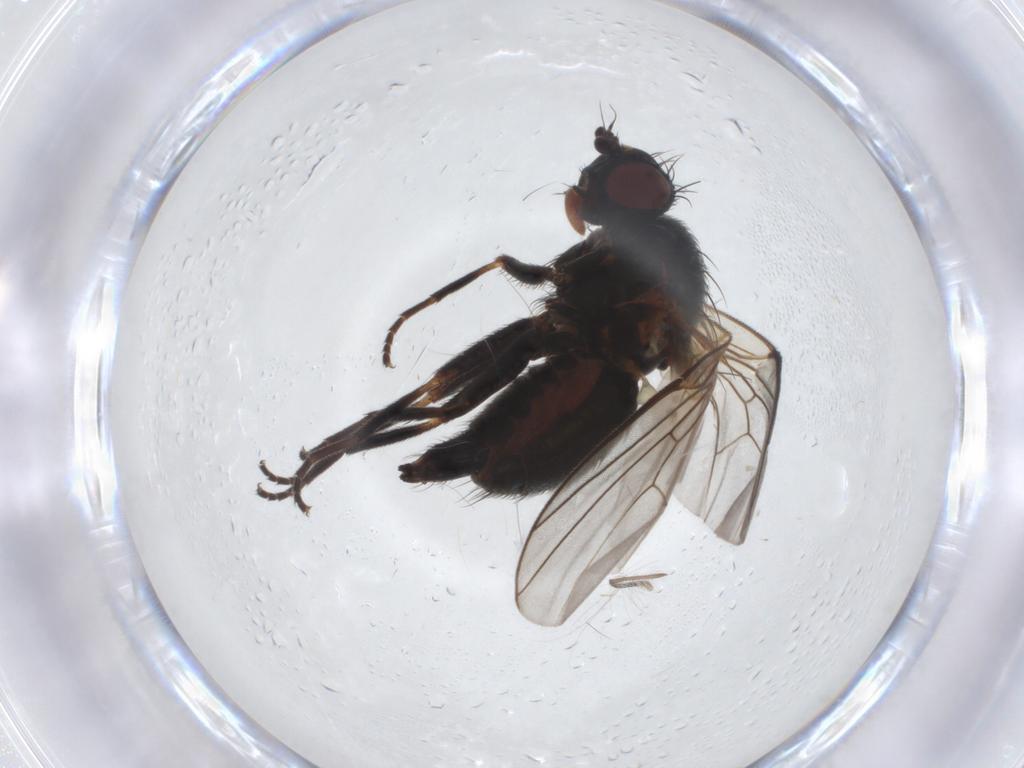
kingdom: Animalia
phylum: Arthropoda
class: Insecta
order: Diptera
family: Agromyzidae
